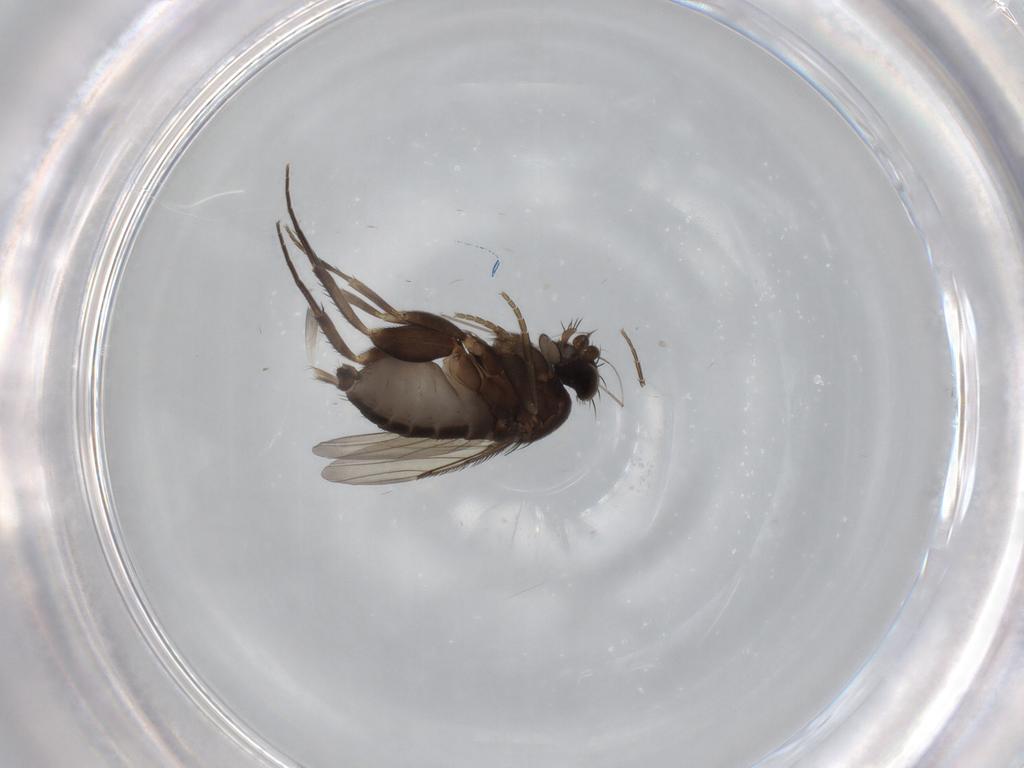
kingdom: Animalia
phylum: Arthropoda
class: Insecta
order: Diptera
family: Phoridae
